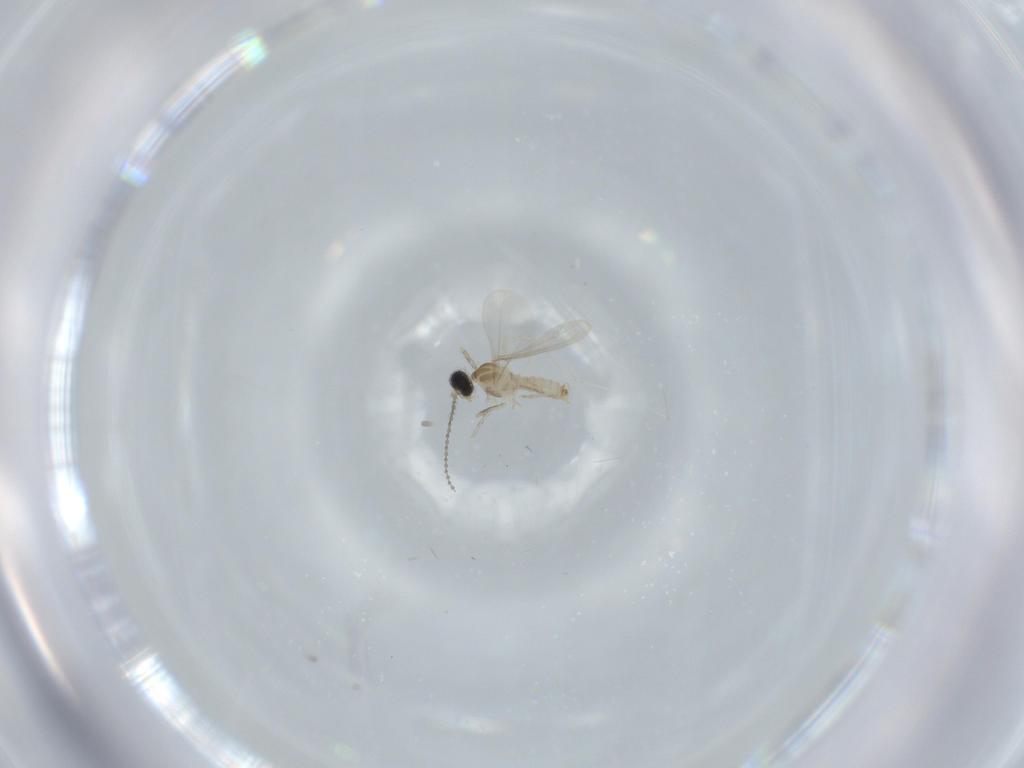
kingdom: Animalia
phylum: Arthropoda
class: Insecta
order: Diptera
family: Cecidomyiidae
